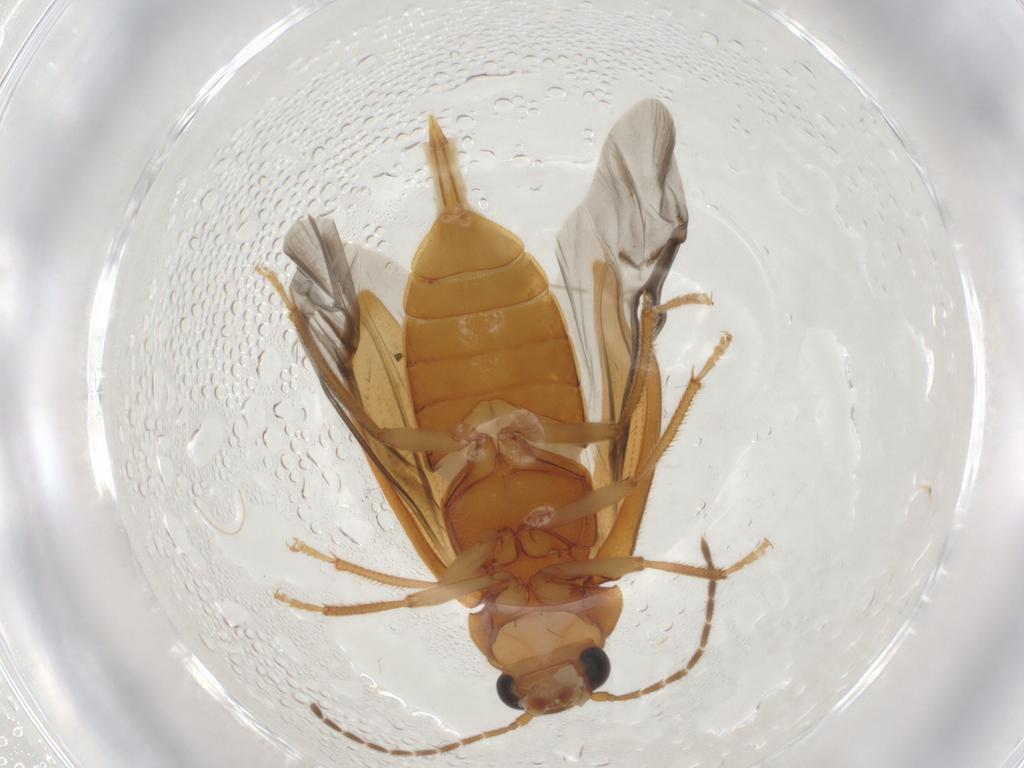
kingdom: Animalia
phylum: Arthropoda
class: Insecta
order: Coleoptera
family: Ptilodactylidae
